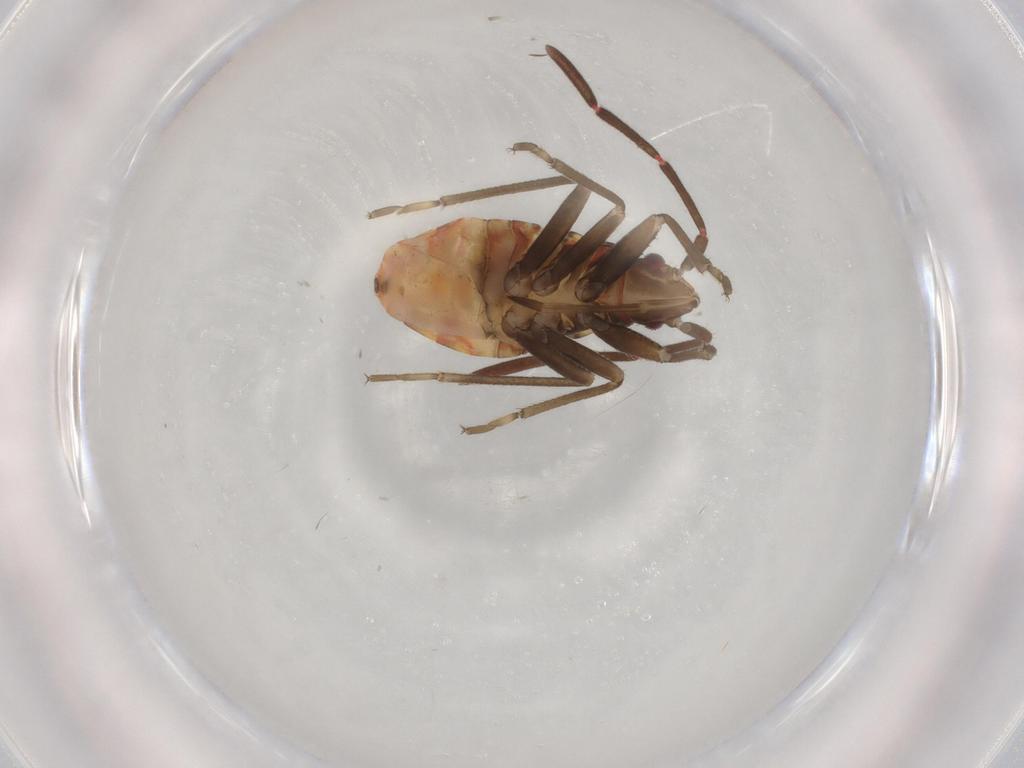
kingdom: Animalia
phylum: Arthropoda
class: Insecta
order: Hemiptera
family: Rhyparochromidae
